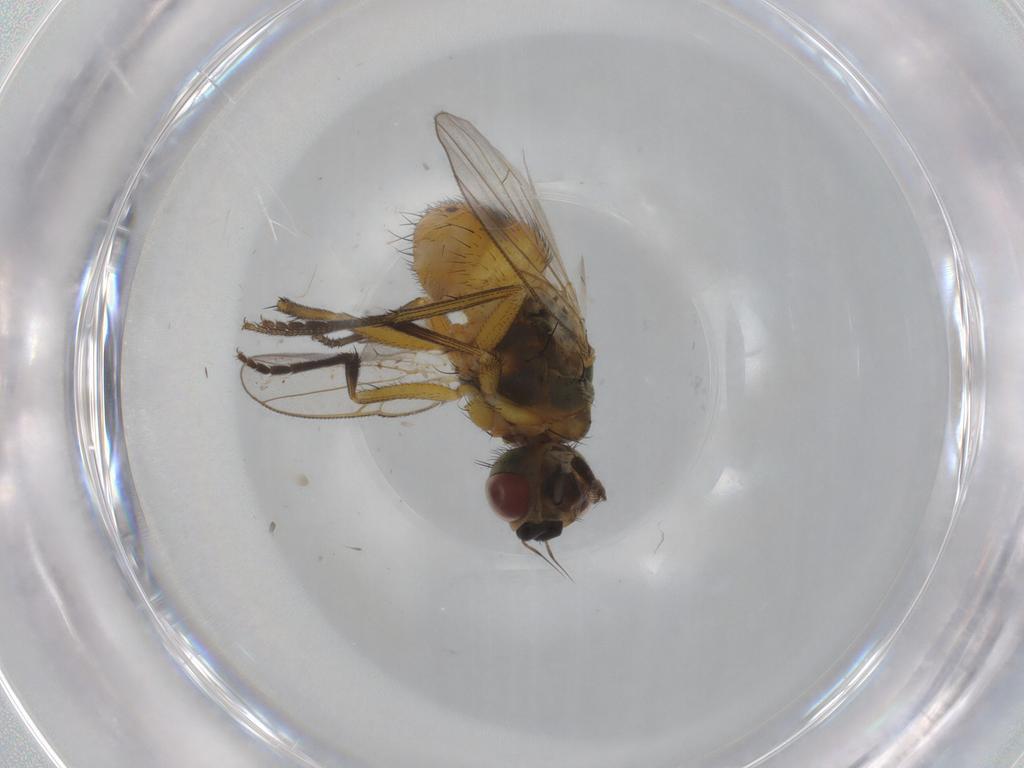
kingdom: Animalia
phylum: Arthropoda
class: Insecta
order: Diptera
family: Muscidae
